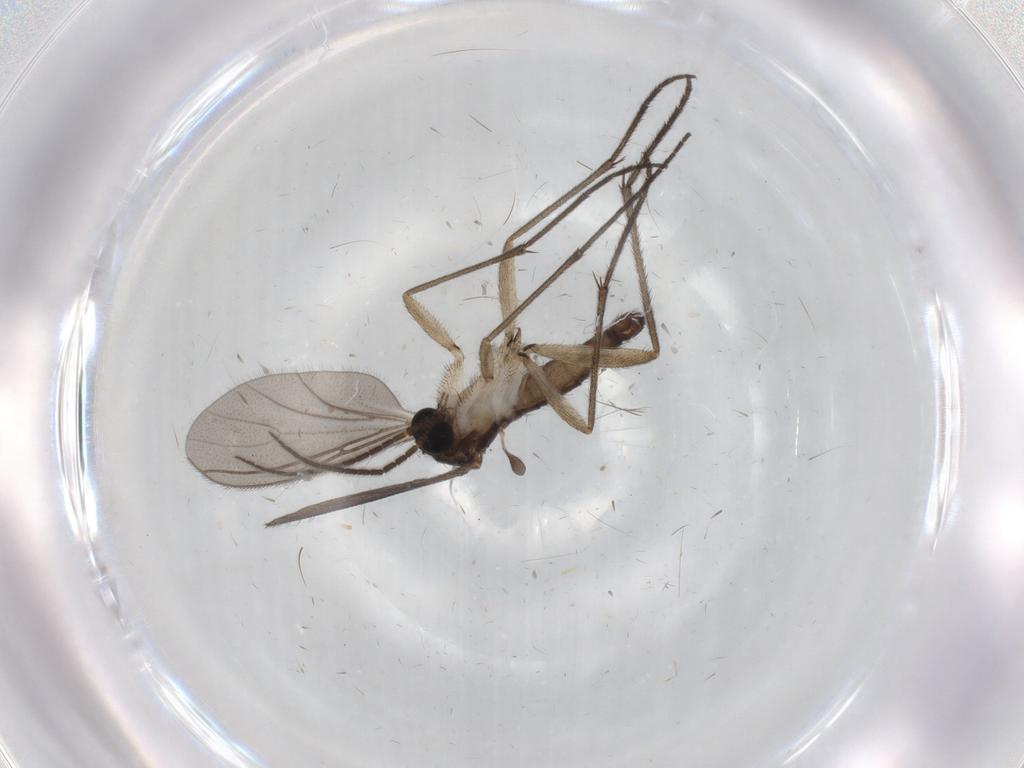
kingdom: Animalia
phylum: Arthropoda
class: Insecta
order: Diptera
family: Sciaridae
